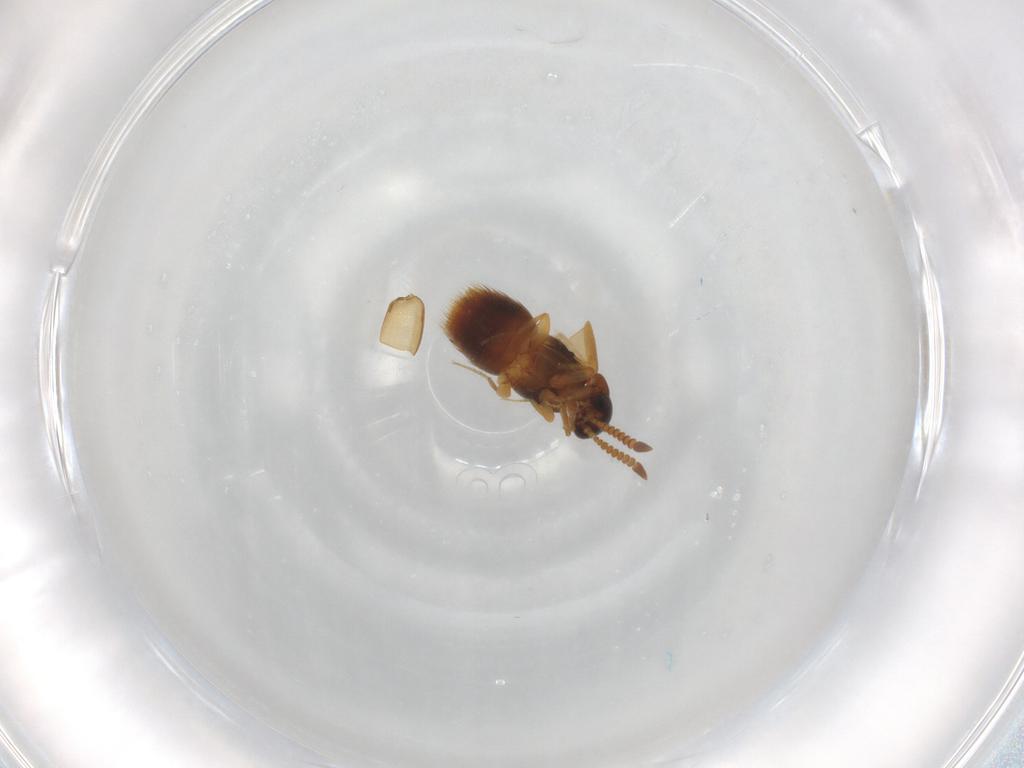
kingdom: Animalia
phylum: Arthropoda
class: Insecta
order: Coleoptera
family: Staphylinidae
